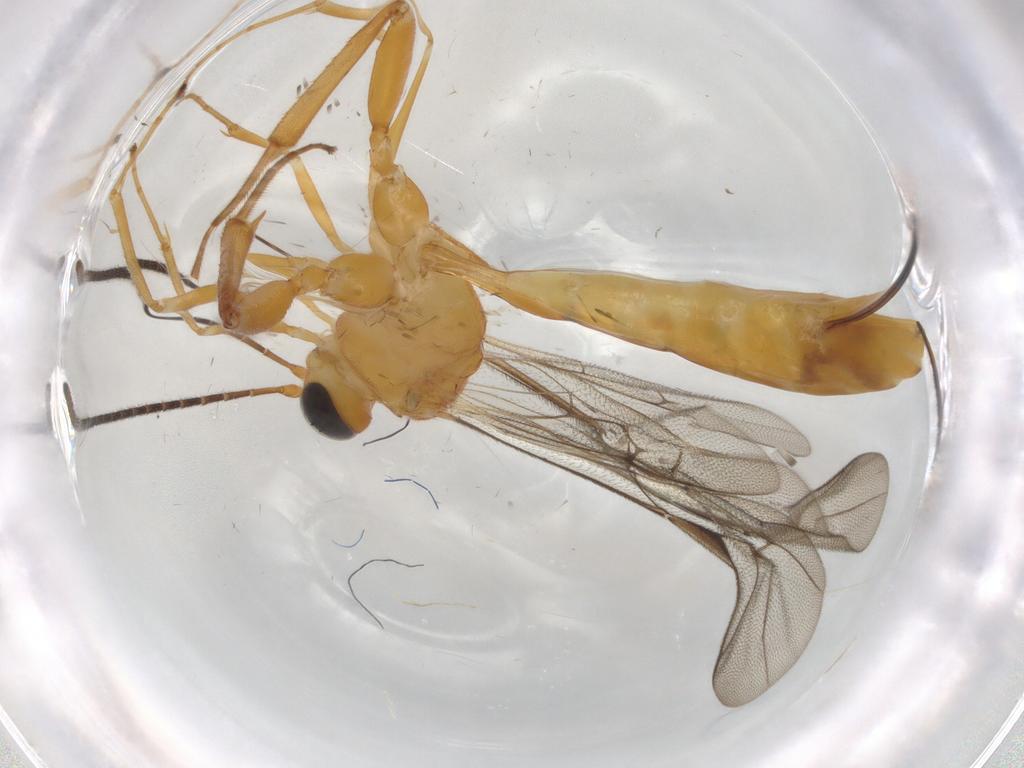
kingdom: Animalia
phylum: Arthropoda
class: Insecta
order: Hymenoptera
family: Ichneumonidae
